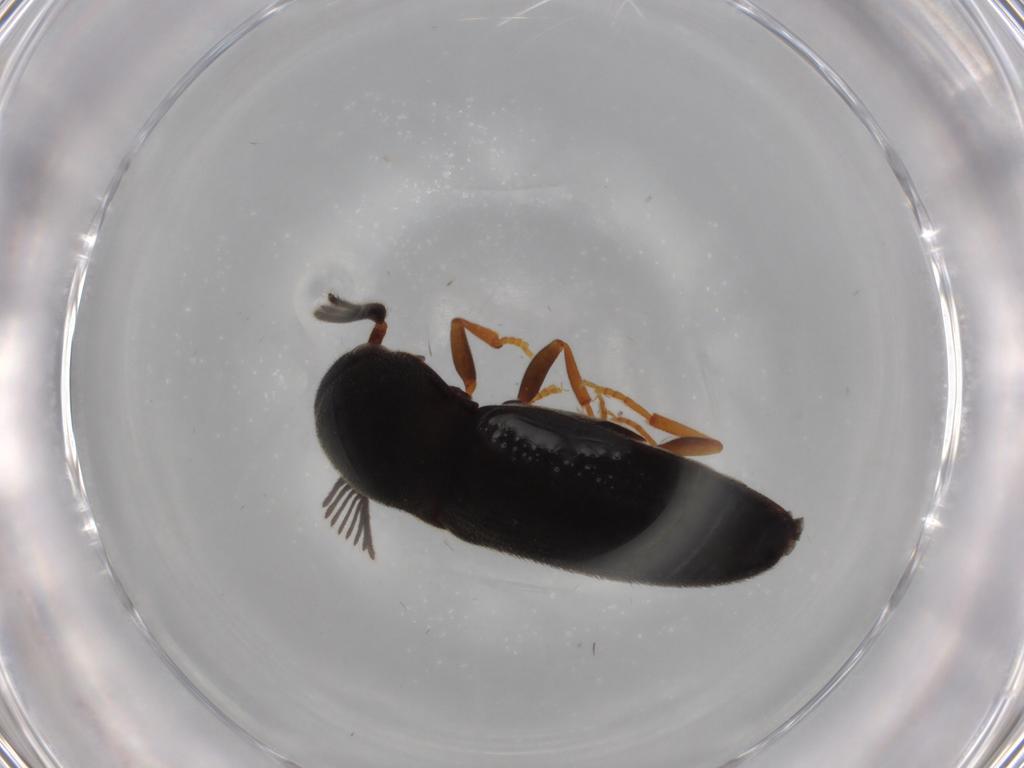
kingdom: Animalia
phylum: Arthropoda
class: Insecta
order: Coleoptera
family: Eucnemidae
